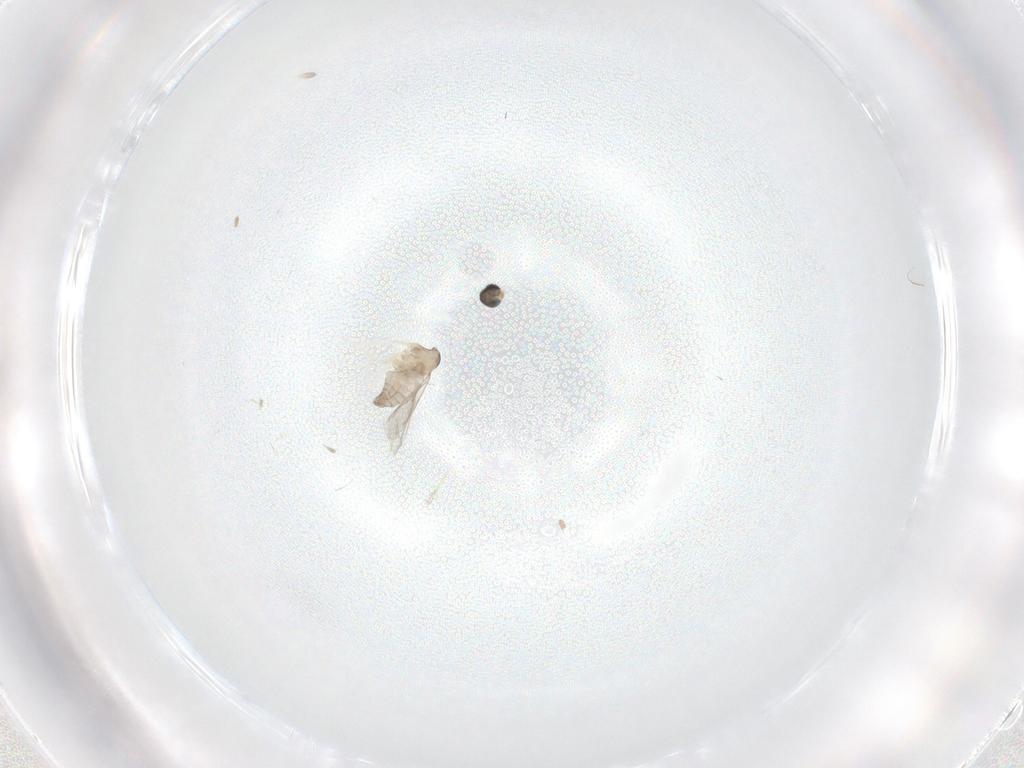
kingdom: Animalia
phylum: Arthropoda
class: Insecta
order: Diptera
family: Cecidomyiidae
